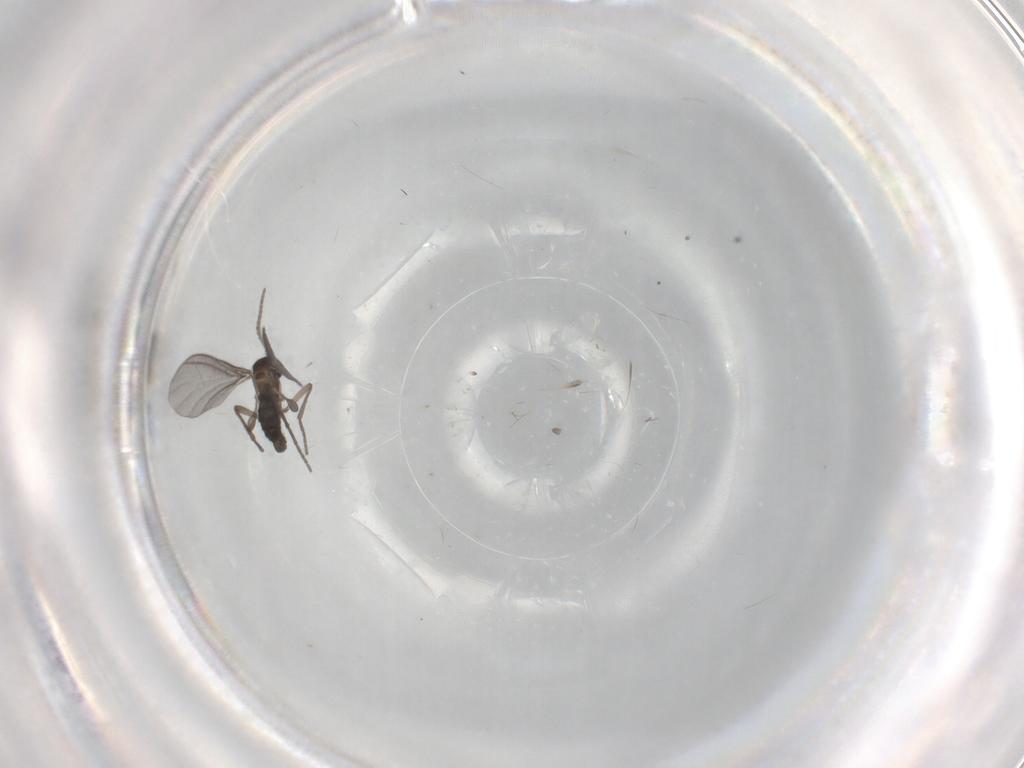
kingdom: Animalia
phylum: Arthropoda
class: Insecta
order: Diptera
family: Sciaridae
